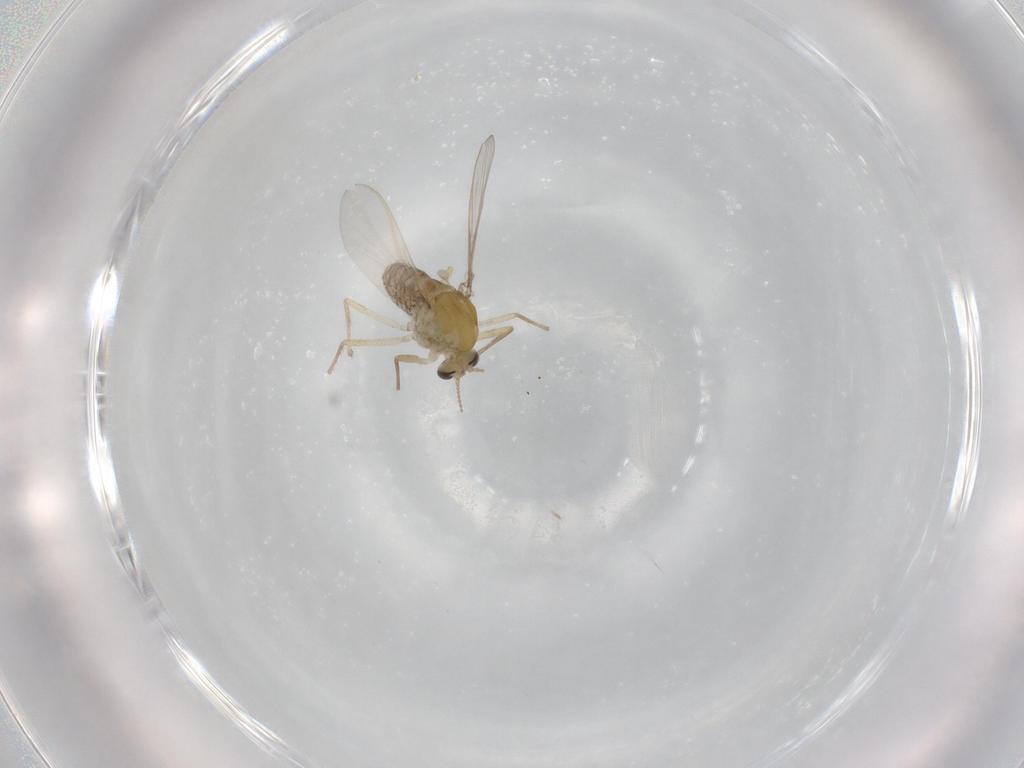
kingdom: Animalia
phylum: Arthropoda
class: Insecta
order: Diptera
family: Chironomidae
